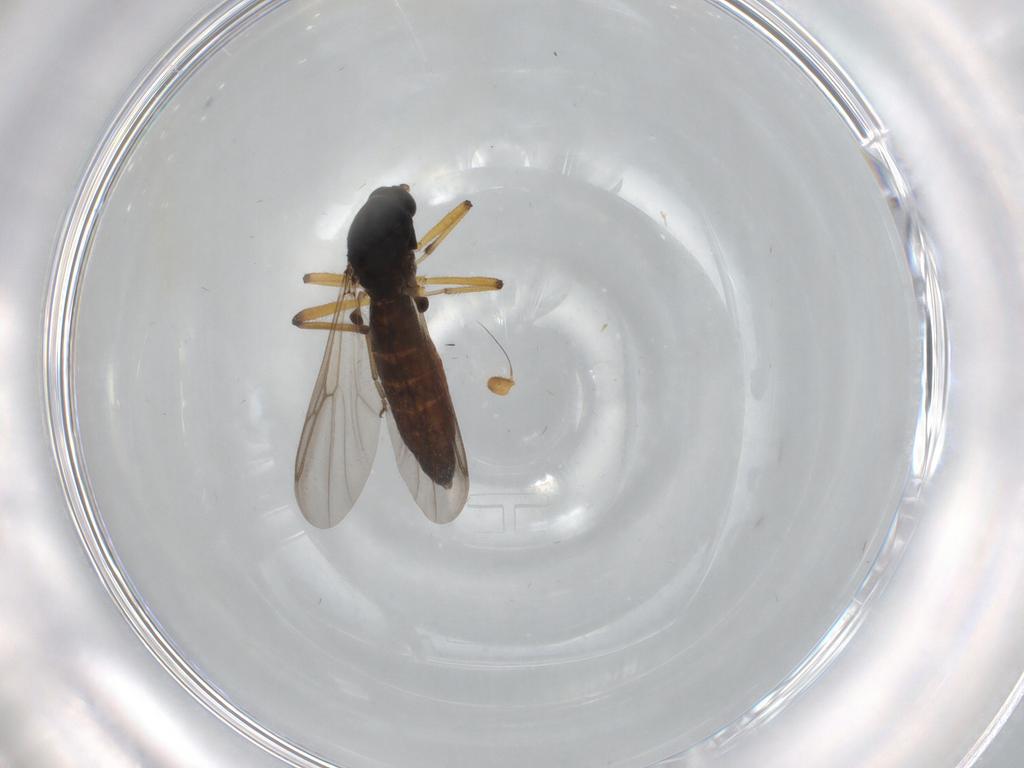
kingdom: Animalia
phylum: Arthropoda
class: Insecta
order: Diptera
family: Ceratopogonidae
